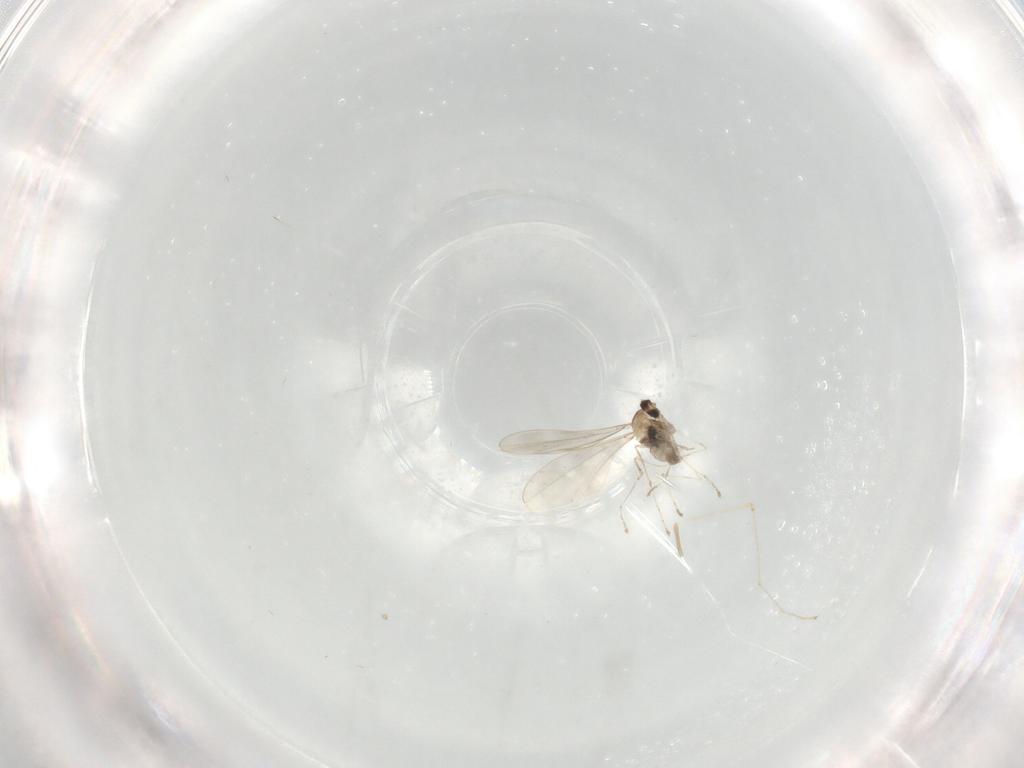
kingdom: Animalia
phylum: Arthropoda
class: Insecta
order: Diptera
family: Cecidomyiidae
